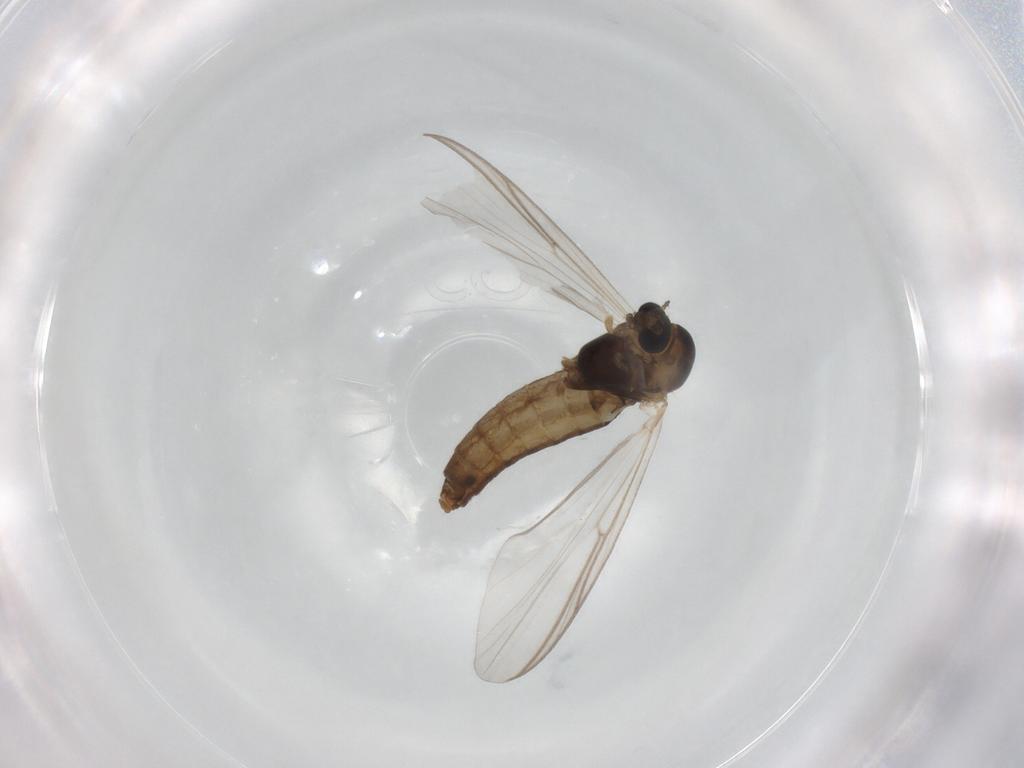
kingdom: Animalia
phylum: Arthropoda
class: Insecta
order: Diptera
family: Chironomidae
